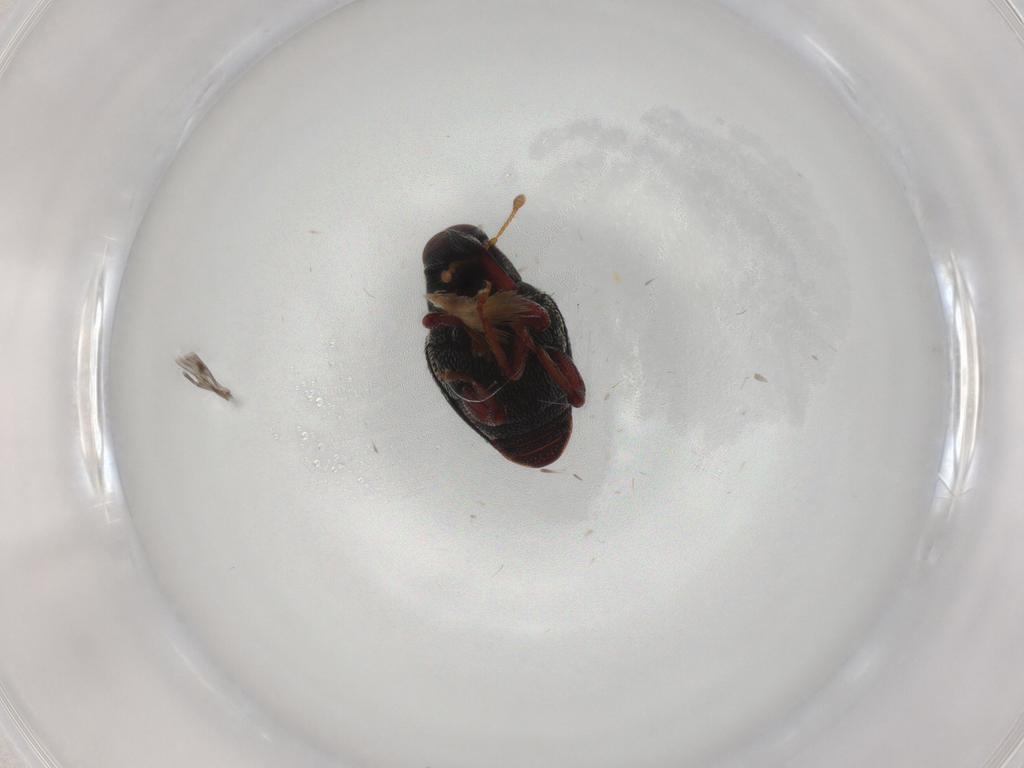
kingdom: Animalia
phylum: Arthropoda
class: Insecta
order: Coleoptera
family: Curculionidae
